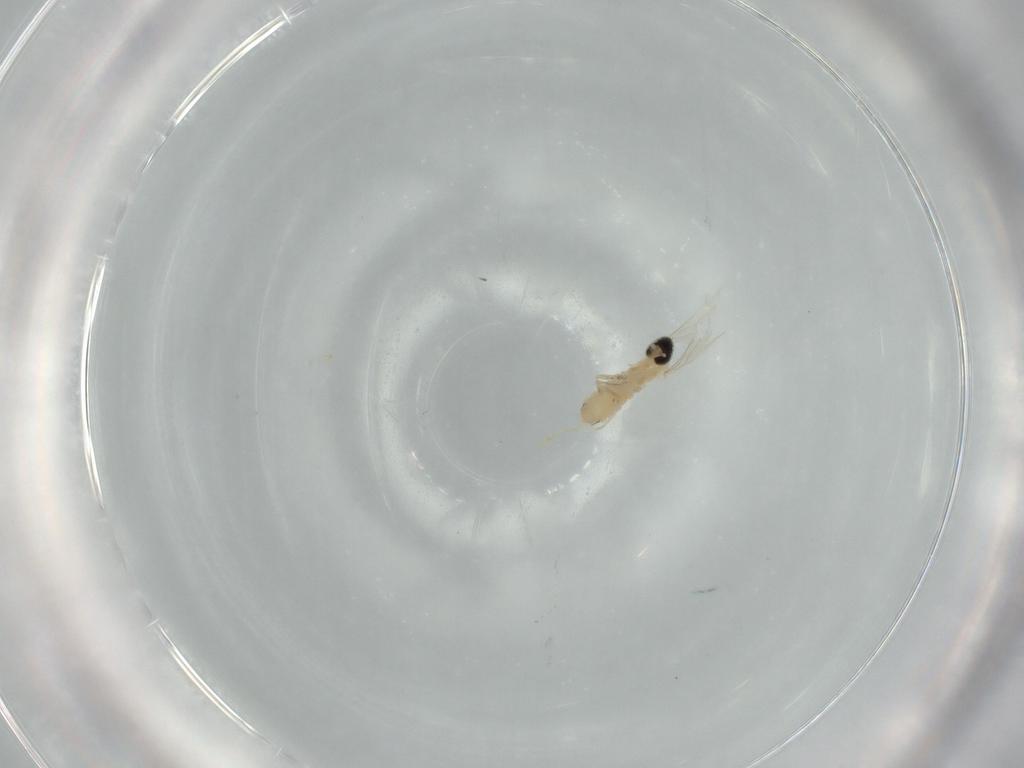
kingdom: Animalia
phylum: Arthropoda
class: Insecta
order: Diptera
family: Cecidomyiidae
